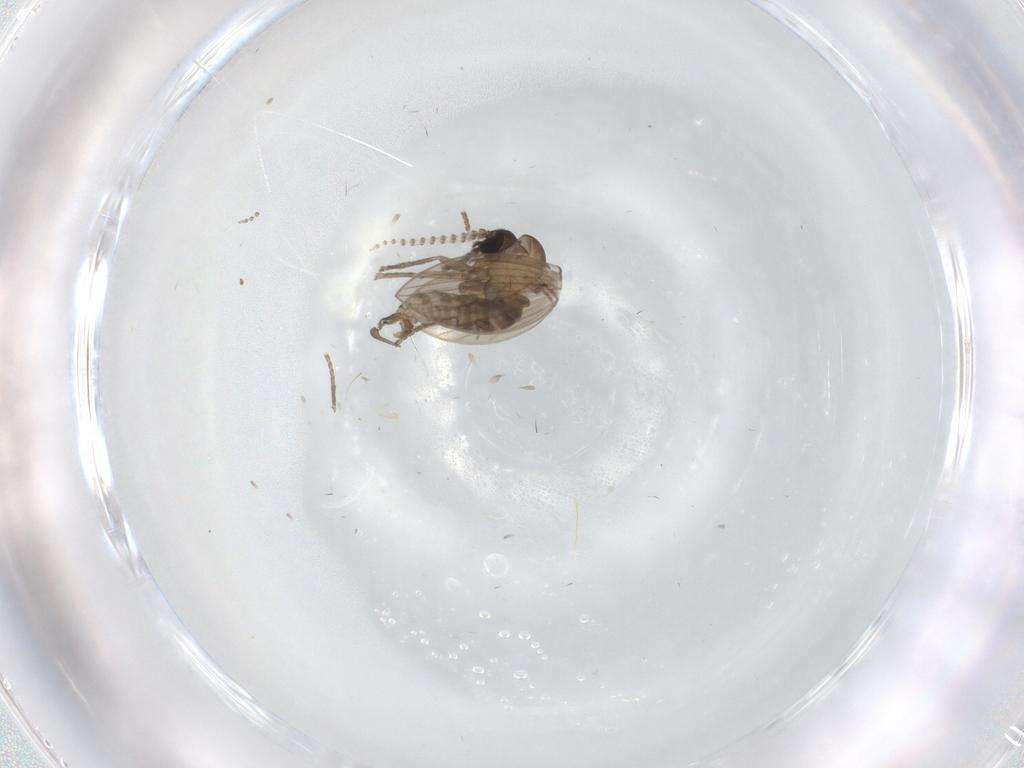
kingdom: Animalia
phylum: Arthropoda
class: Insecta
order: Diptera
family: Psychodidae
